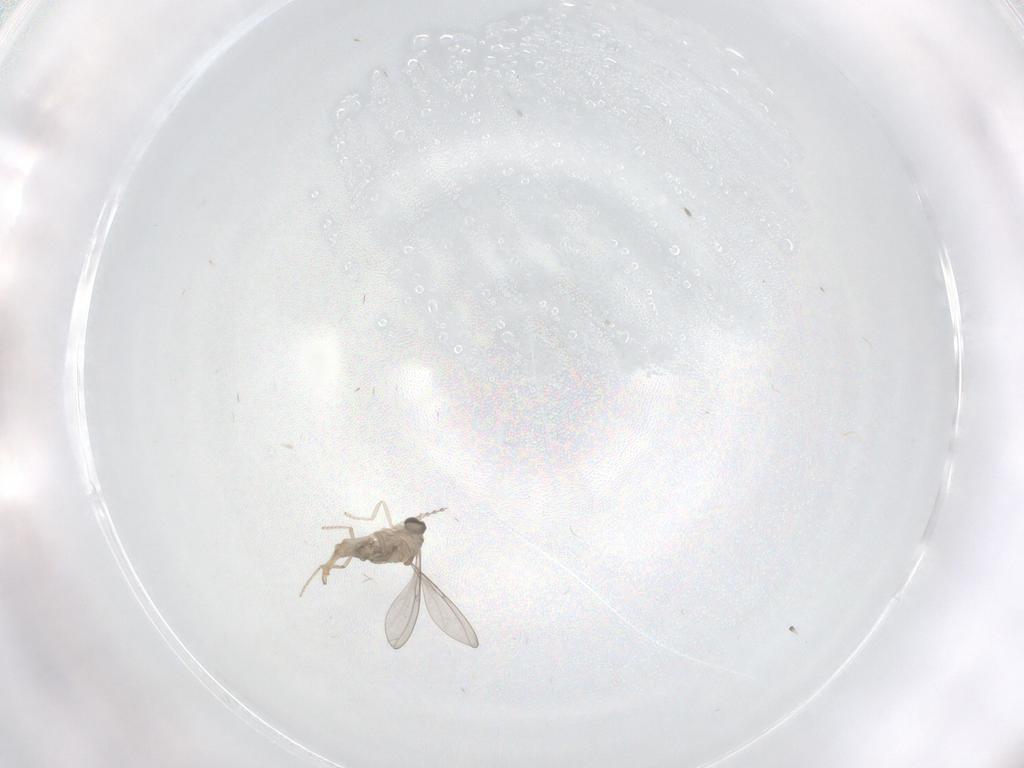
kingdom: Animalia
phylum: Arthropoda
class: Insecta
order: Diptera
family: Cecidomyiidae
